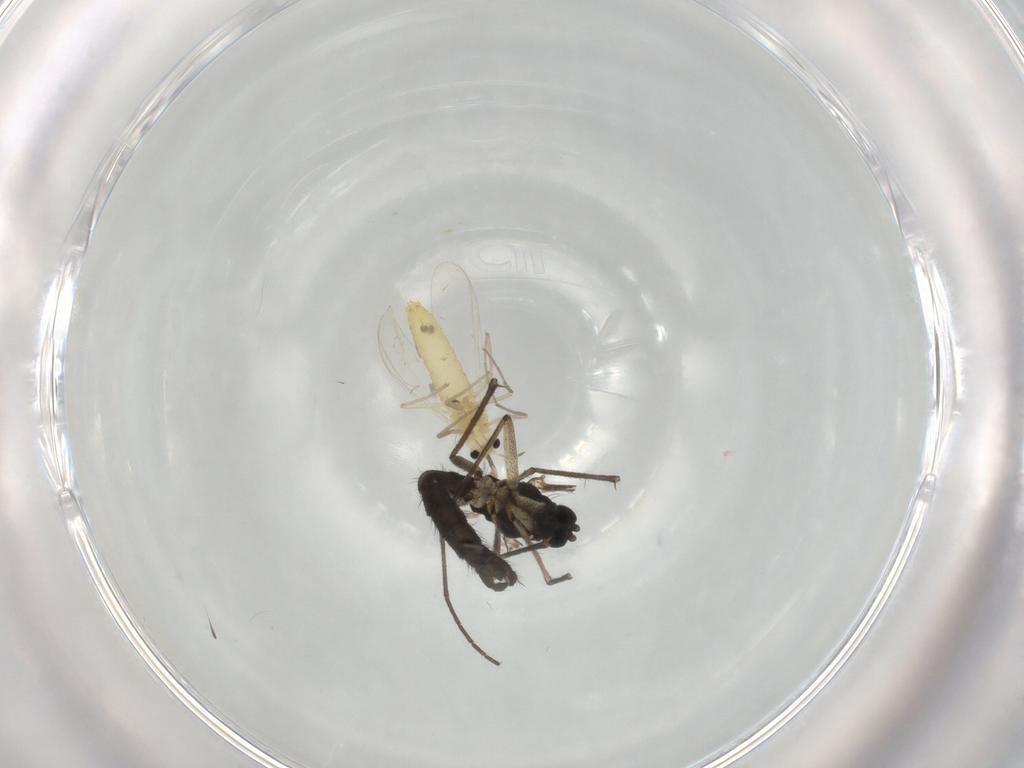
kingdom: Animalia
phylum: Arthropoda
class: Insecta
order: Diptera
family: Chironomidae
